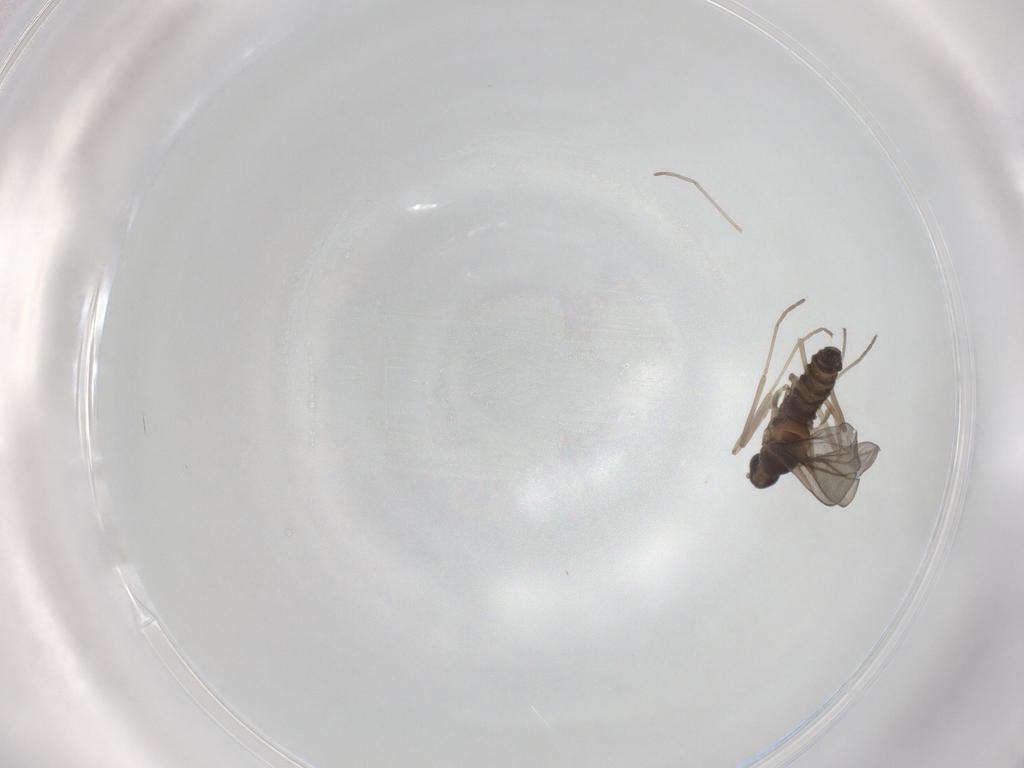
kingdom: Animalia
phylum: Arthropoda
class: Insecta
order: Diptera
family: Cecidomyiidae
